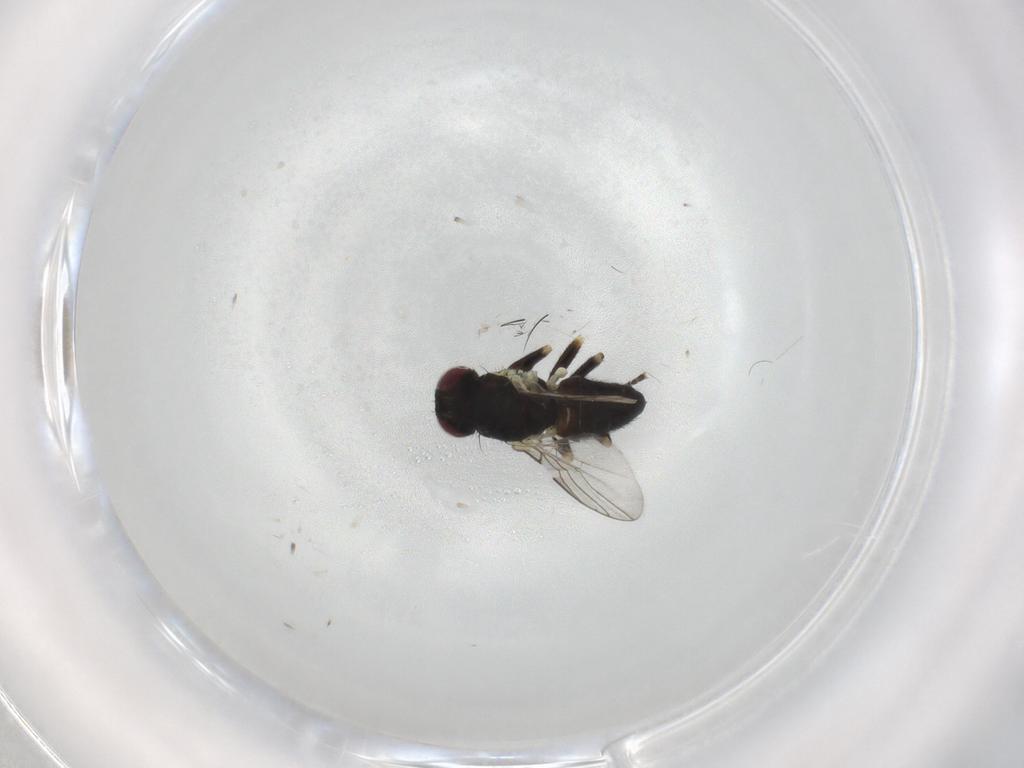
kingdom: Animalia
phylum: Arthropoda
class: Insecta
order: Diptera
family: Agromyzidae
